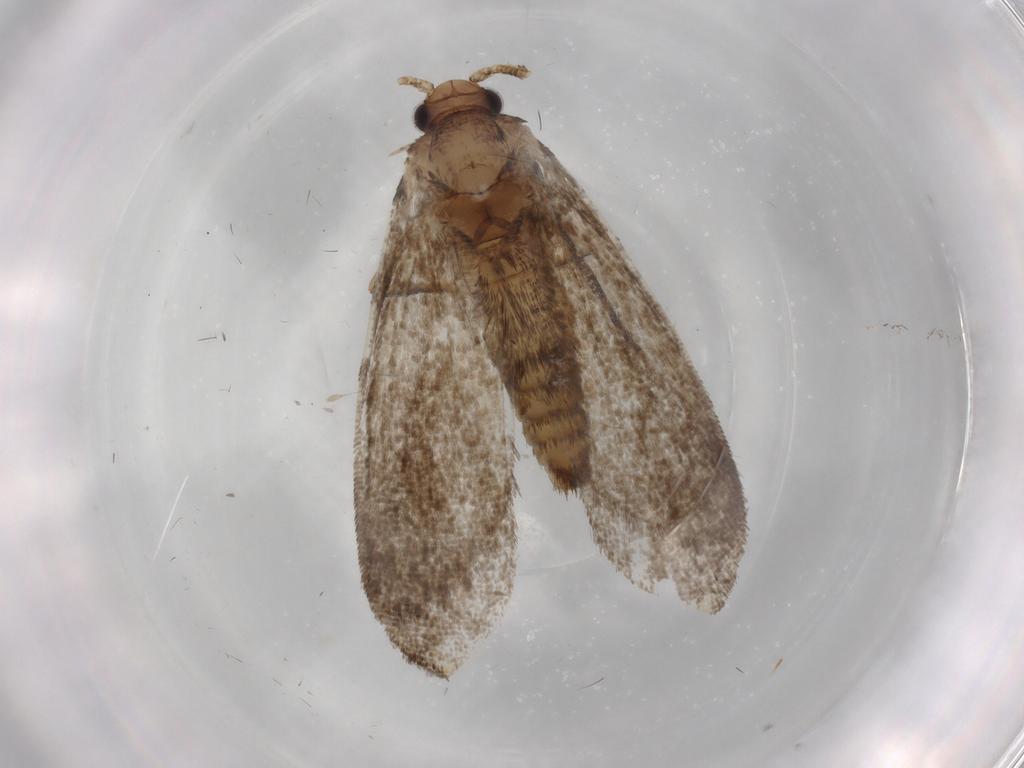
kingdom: Animalia
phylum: Arthropoda
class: Insecta
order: Lepidoptera
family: Tineidae
